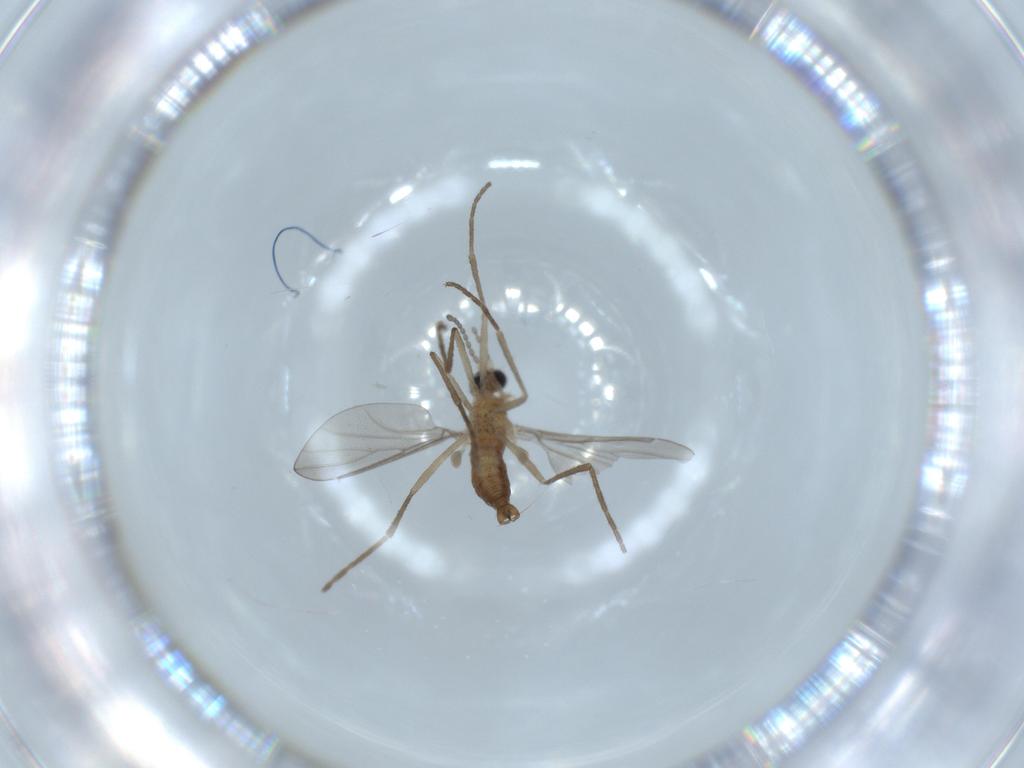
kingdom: Animalia
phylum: Arthropoda
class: Insecta
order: Diptera
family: Cecidomyiidae
